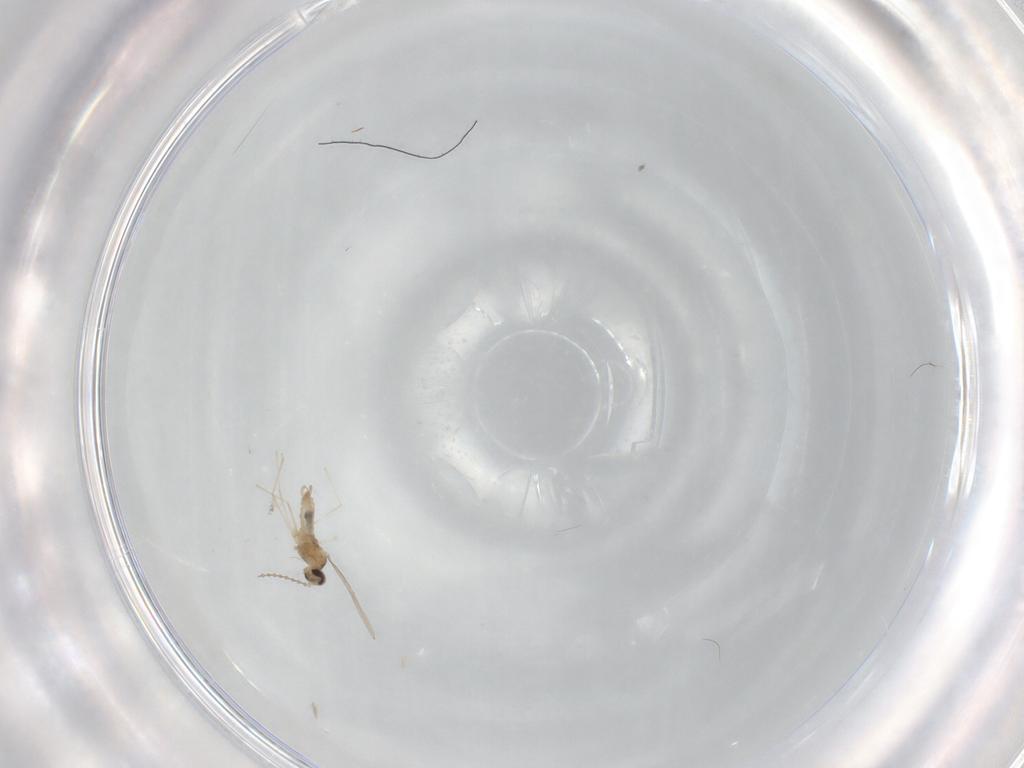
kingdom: Animalia
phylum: Arthropoda
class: Insecta
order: Diptera
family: Cecidomyiidae
